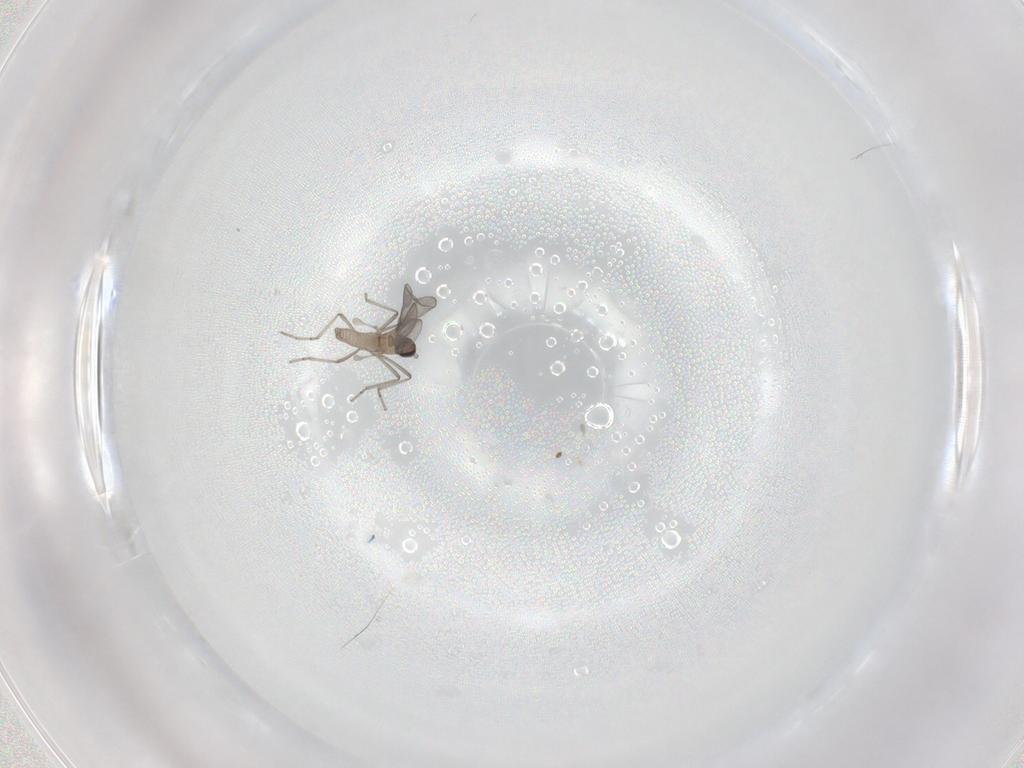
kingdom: Animalia
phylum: Arthropoda
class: Insecta
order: Diptera
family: Cecidomyiidae
